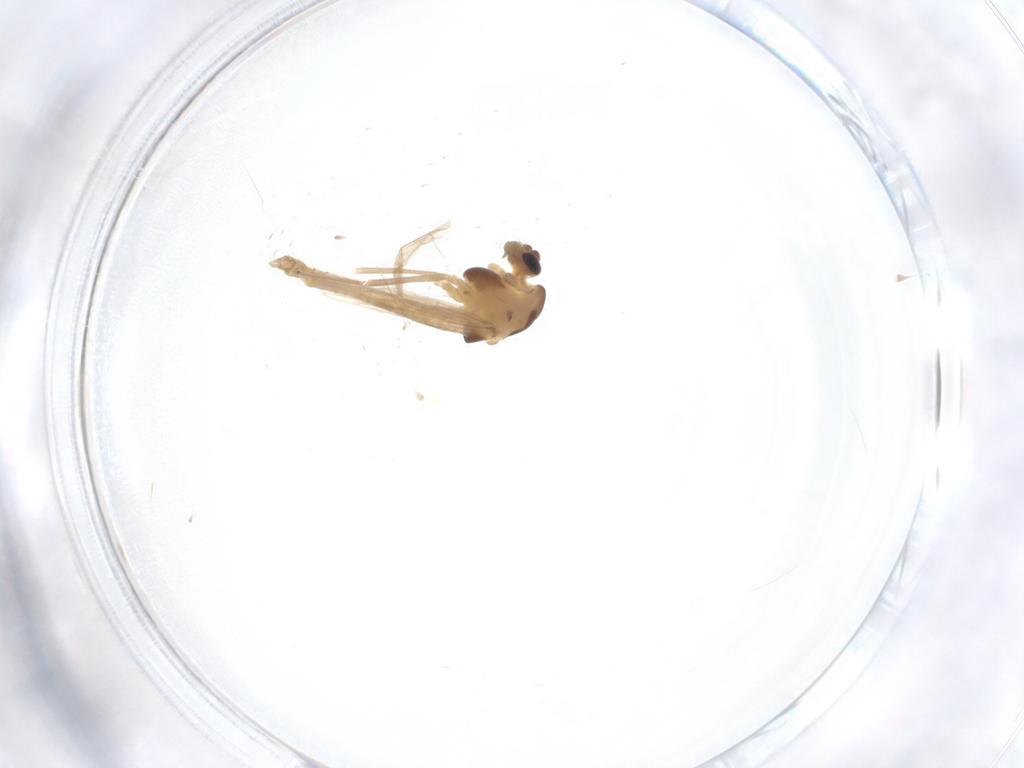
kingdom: Animalia
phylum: Arthropoda
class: Insecta
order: Diptera
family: Chironomidae
